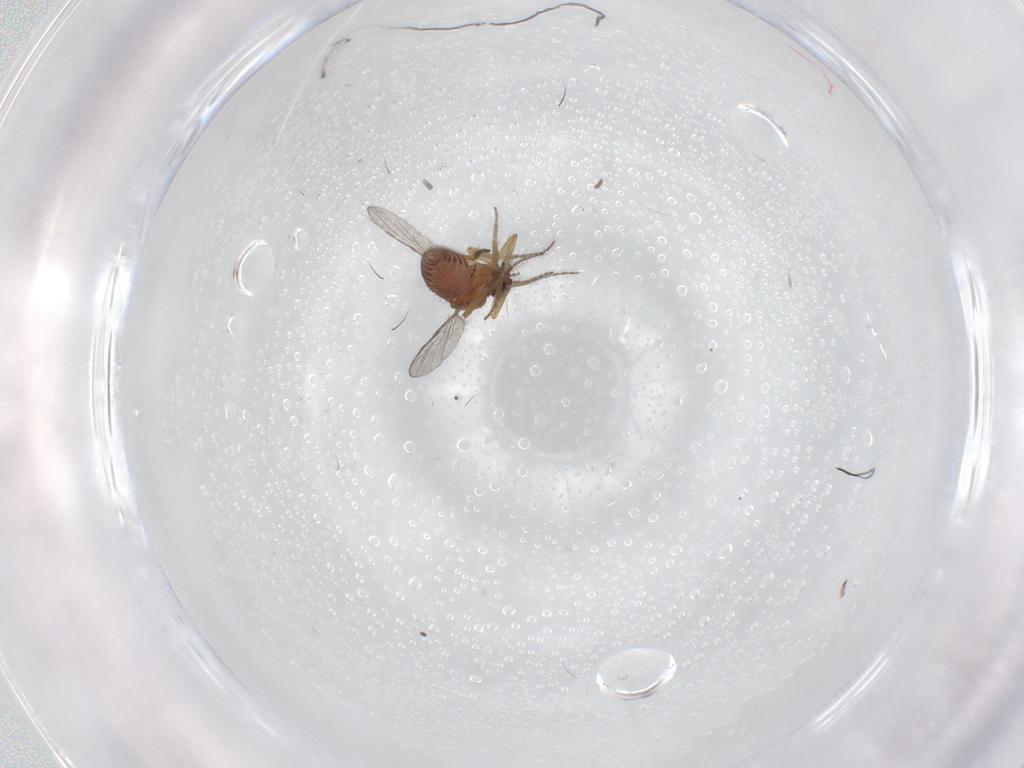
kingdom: Animalia
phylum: Arthropoda
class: Insecta
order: Diptera
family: Ceratopogonidae
